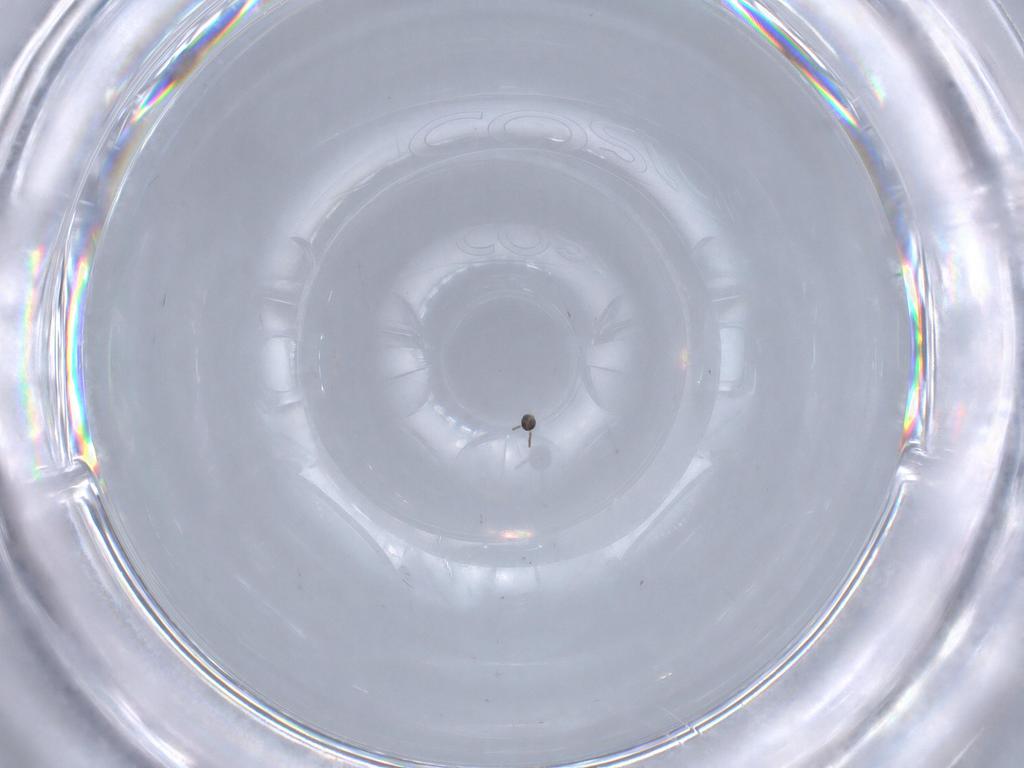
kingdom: Animalia
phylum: Arthropoda
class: Insecta
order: Diptera
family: Cecidomyiidae
